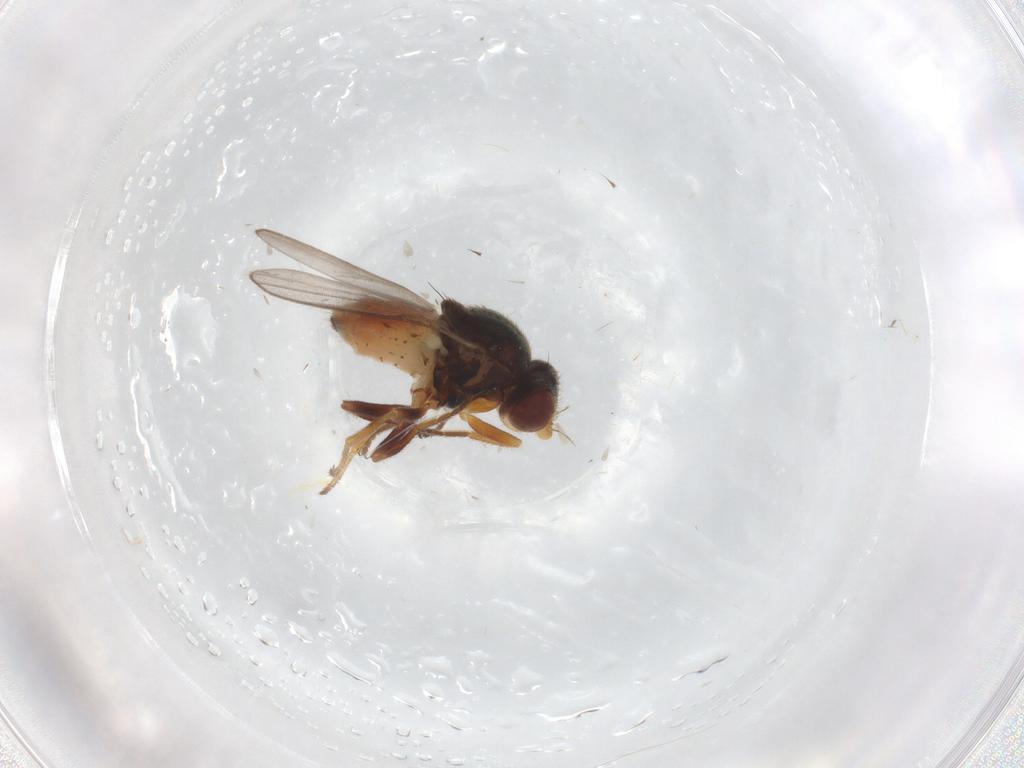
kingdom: Animalia
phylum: Arthropoda
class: Insecta
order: Diptera
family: Chloropidae
